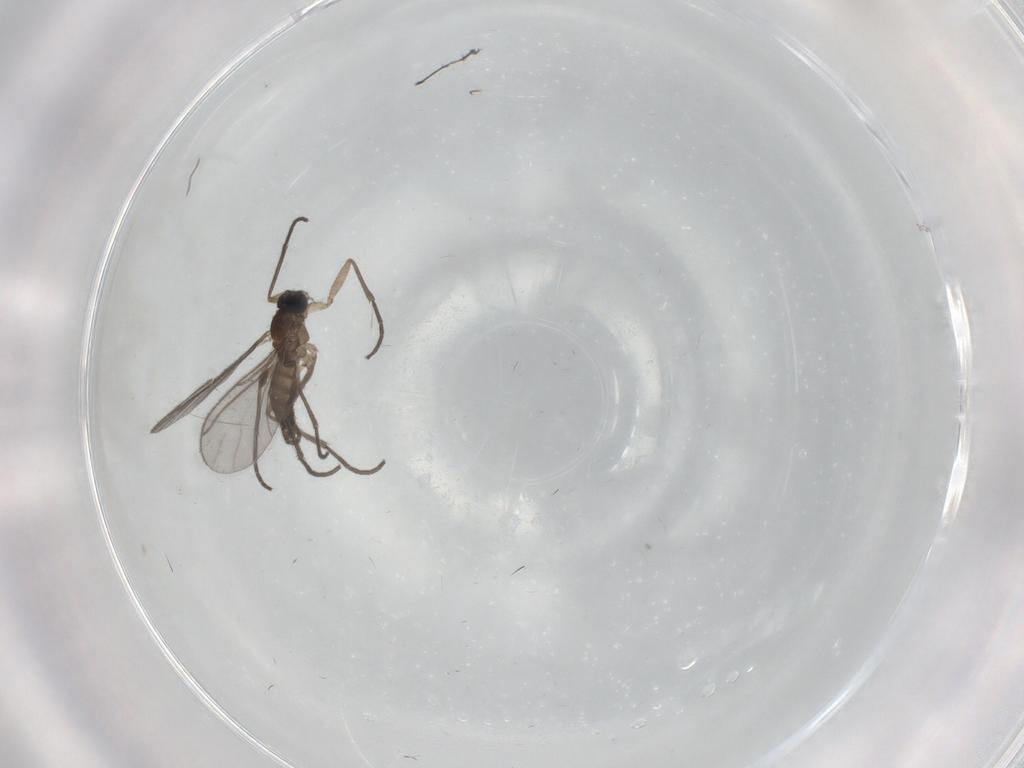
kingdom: Animalia
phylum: Arthropoda
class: Insecta
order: Diptera
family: Sciaridae
